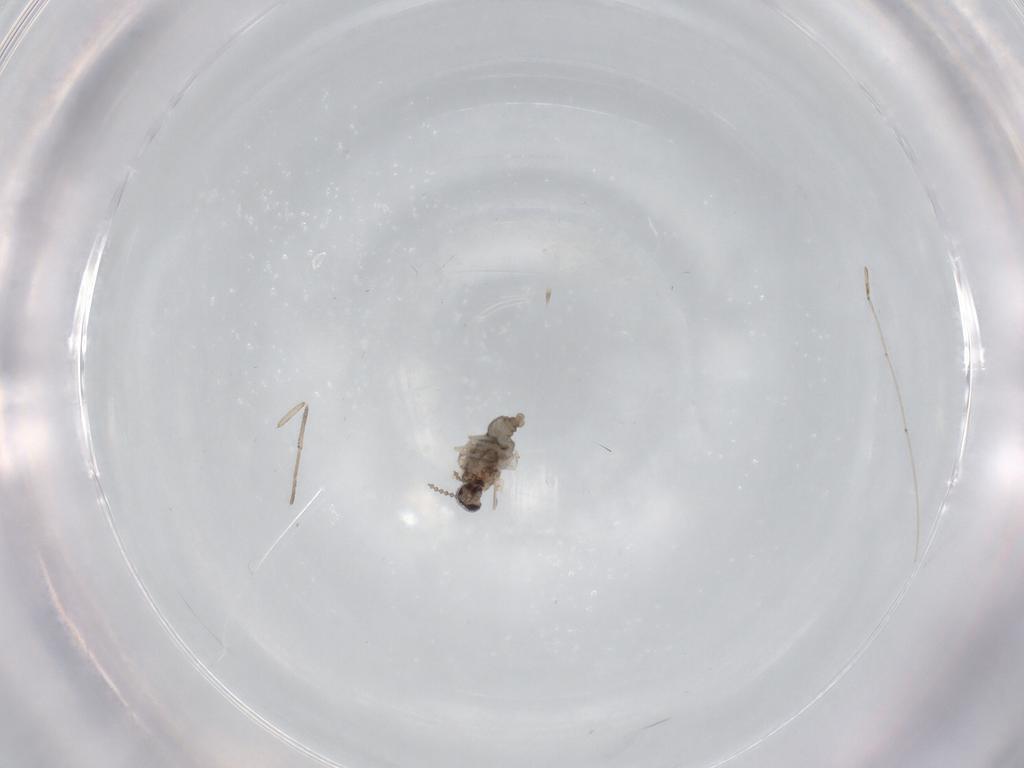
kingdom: Animalia
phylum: Arthropoda
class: Insecta
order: Diptera
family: Cecidomyiidae
